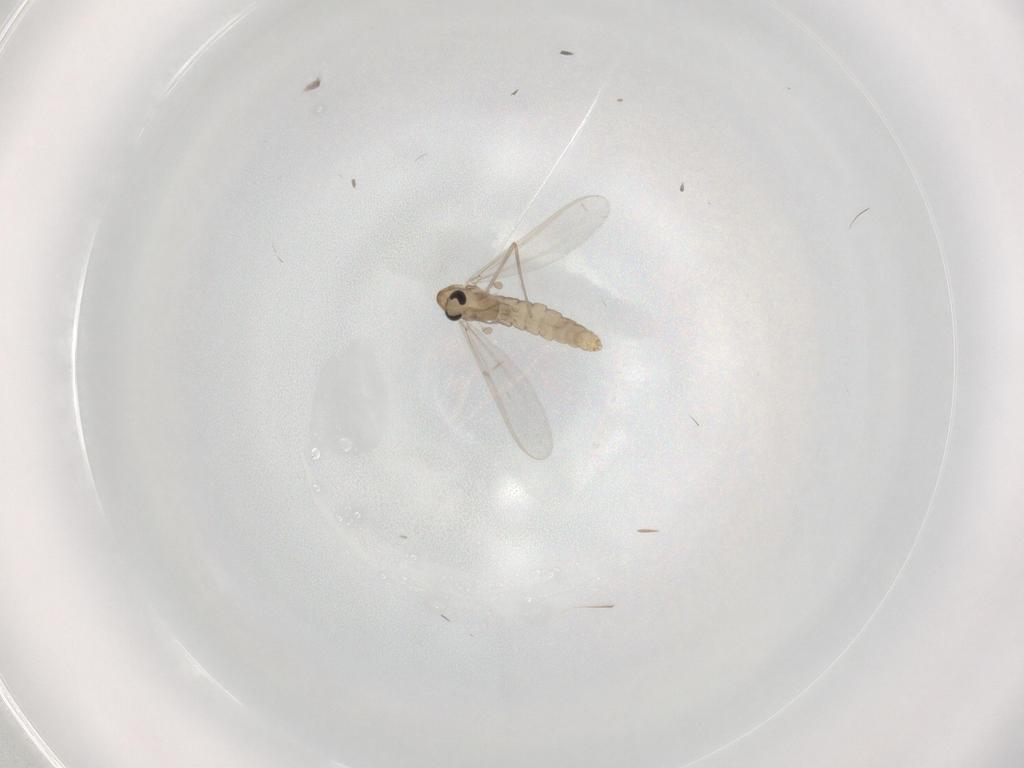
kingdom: Animalia
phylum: Arthropoda
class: Insecta
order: Diptera
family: Chironomidae
